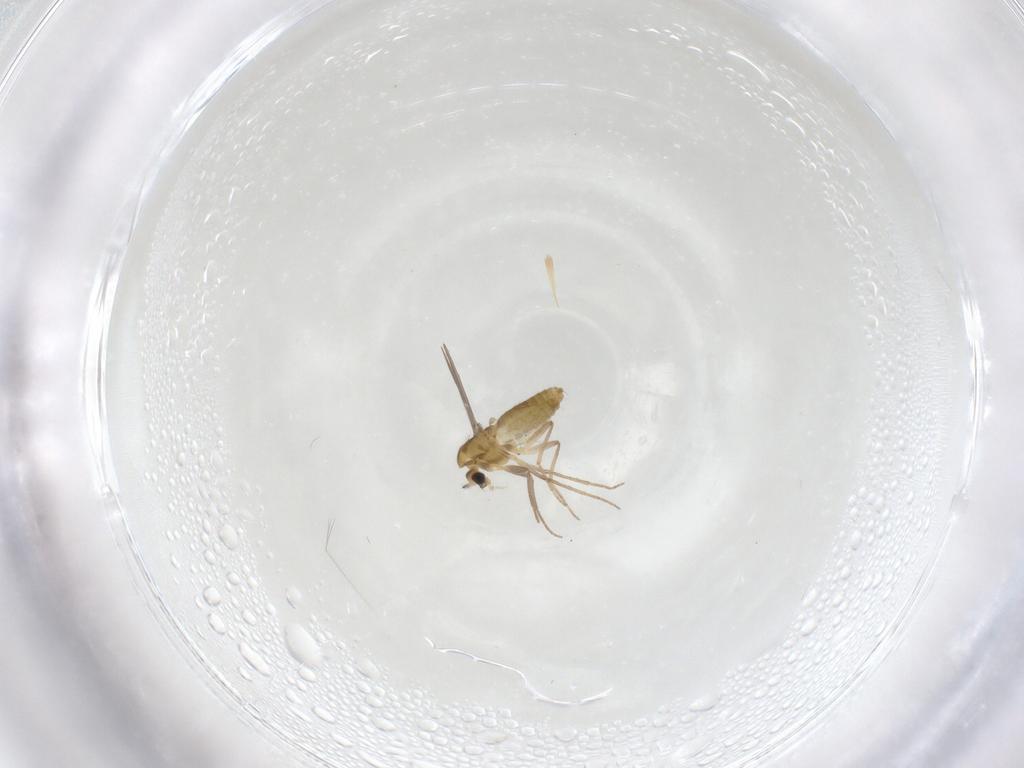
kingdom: Animalia
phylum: Arthropoda
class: Insecta
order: Diptera
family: Chironomidae
